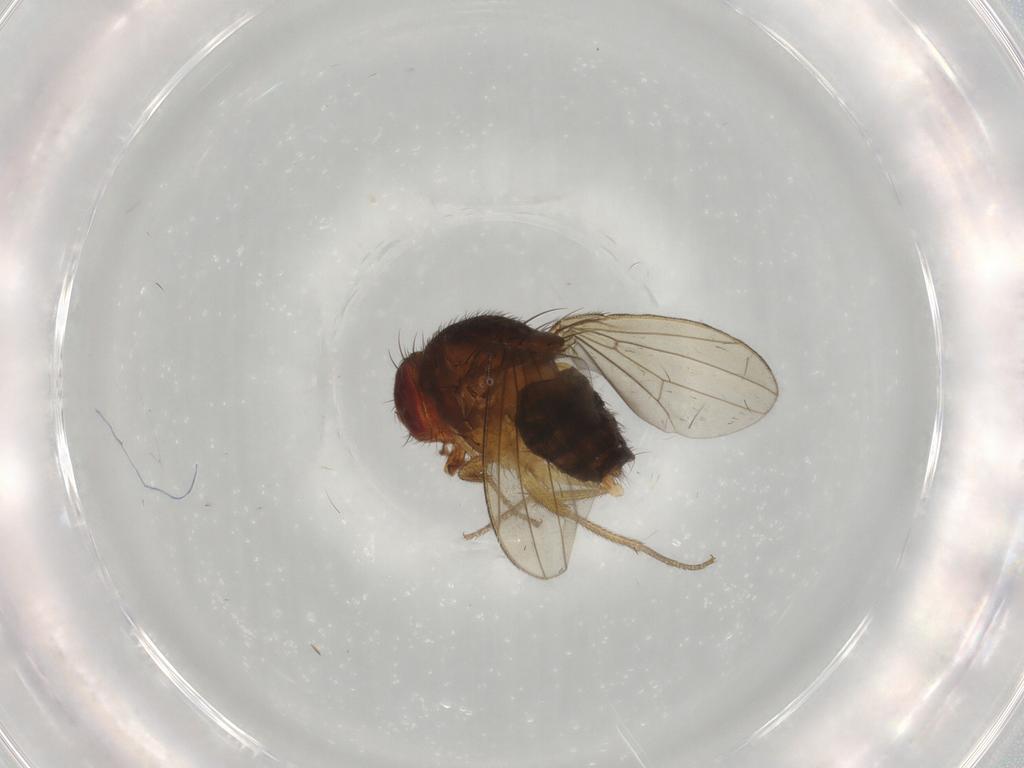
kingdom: Animalia
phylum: Arthropoda
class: Insecta
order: Diptera
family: Drosophilidae
